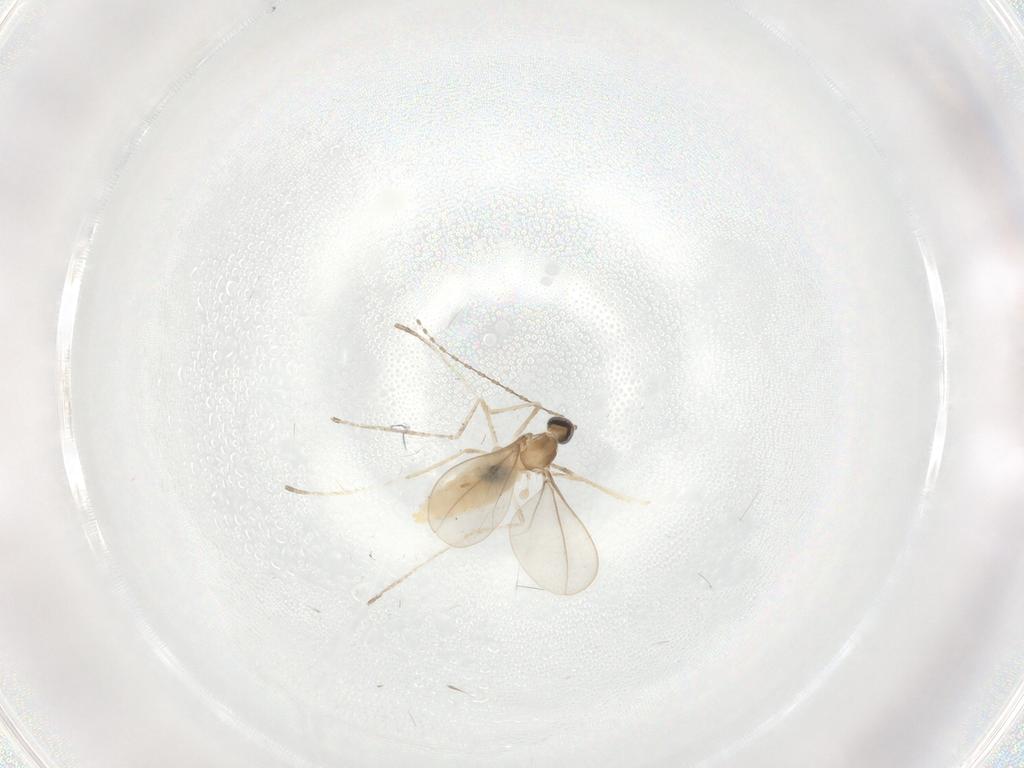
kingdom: Animalia
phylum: Arthropoda
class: Insecta
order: Diptera
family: Cecidomyiidae
